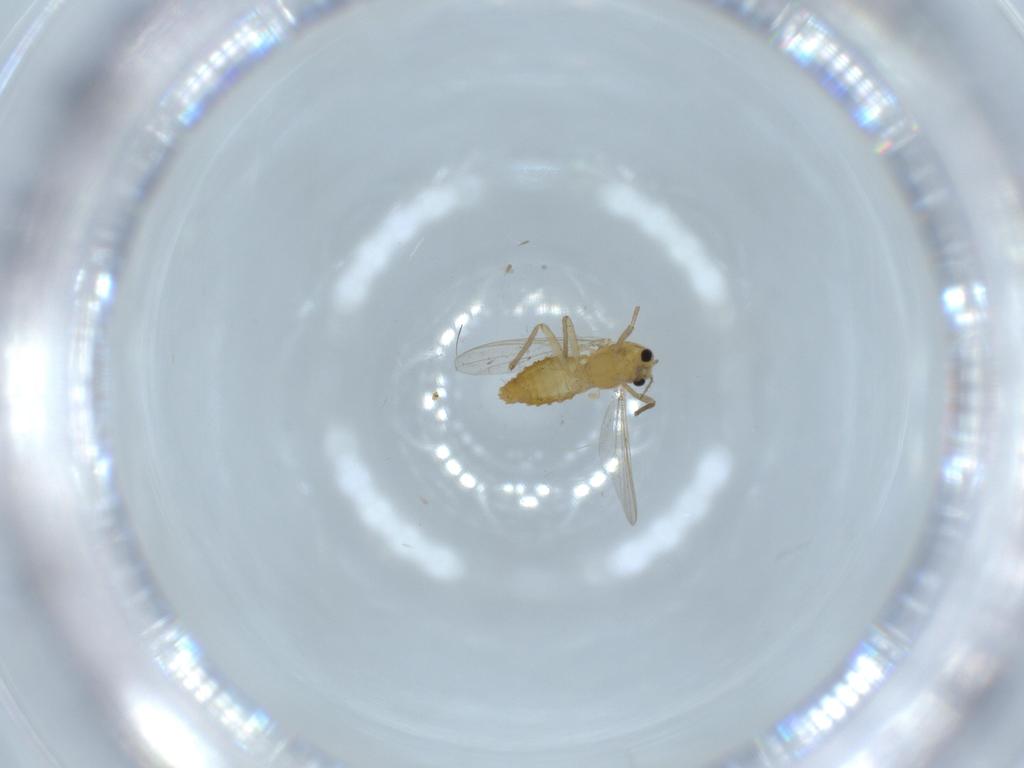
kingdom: Animalia
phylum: Arthropoda
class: Insecta
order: Diptera
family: Chironomidae
